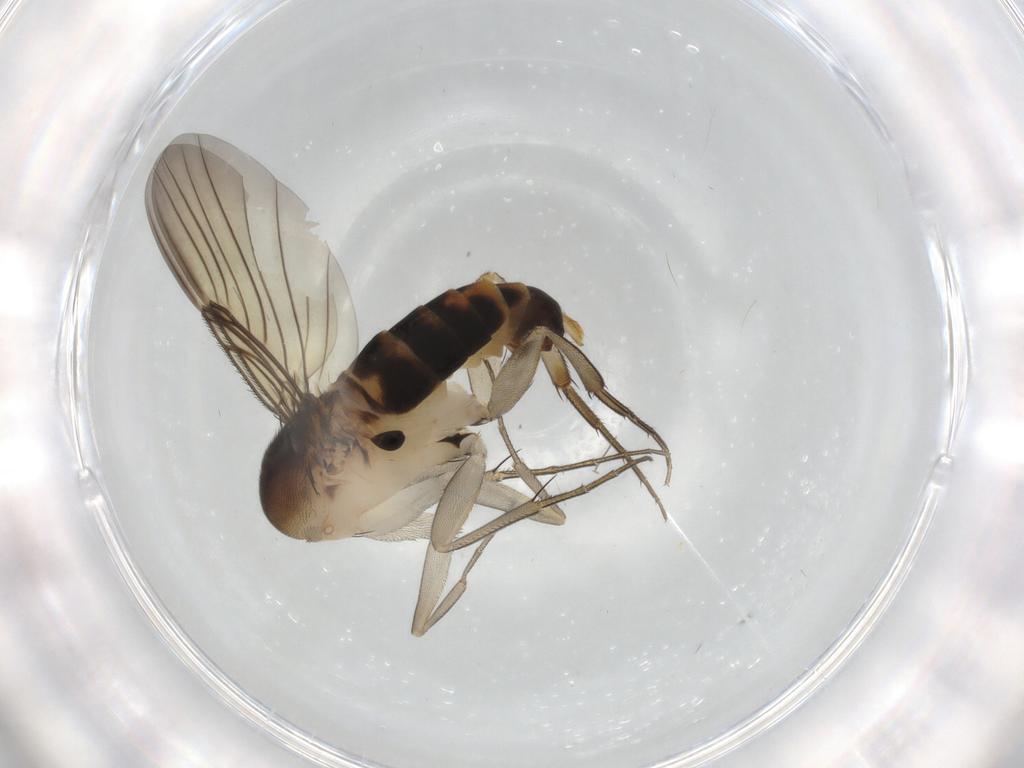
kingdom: Animalia
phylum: Arthropoda
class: Insecta
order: Diptera
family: Phoridae
